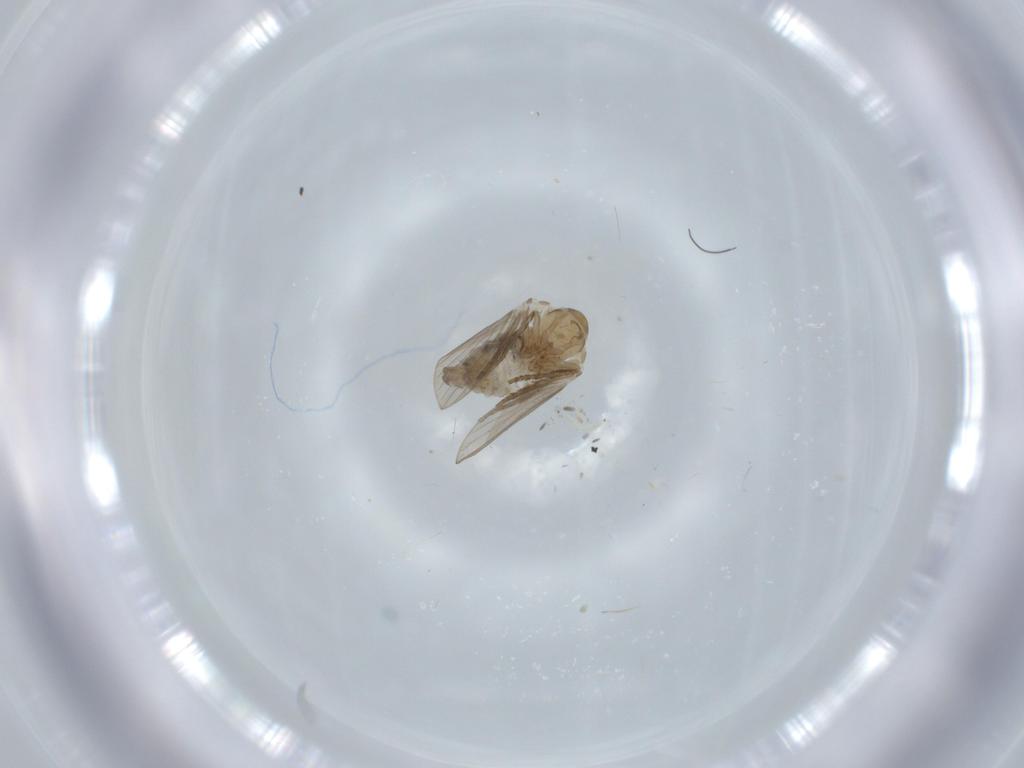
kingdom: Animalia
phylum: Arthropoda
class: Insecta
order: Diptera
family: Psychodidae
